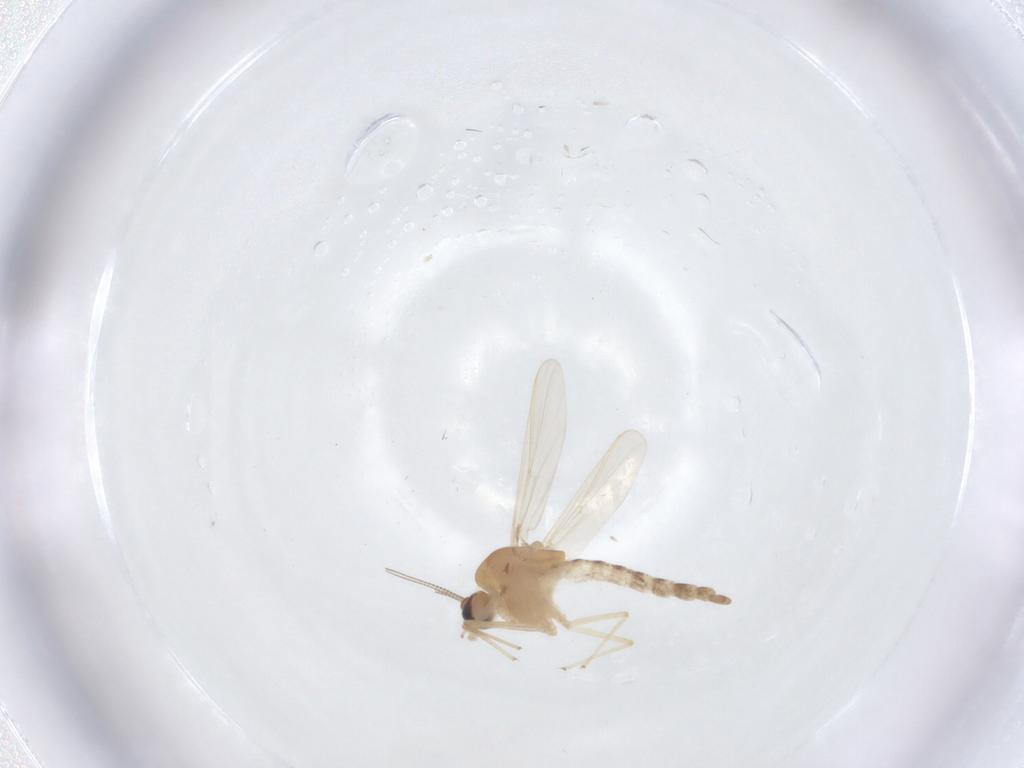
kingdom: Animalia
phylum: Arthropoda
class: Insecta
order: Diptera
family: Chironomidae
